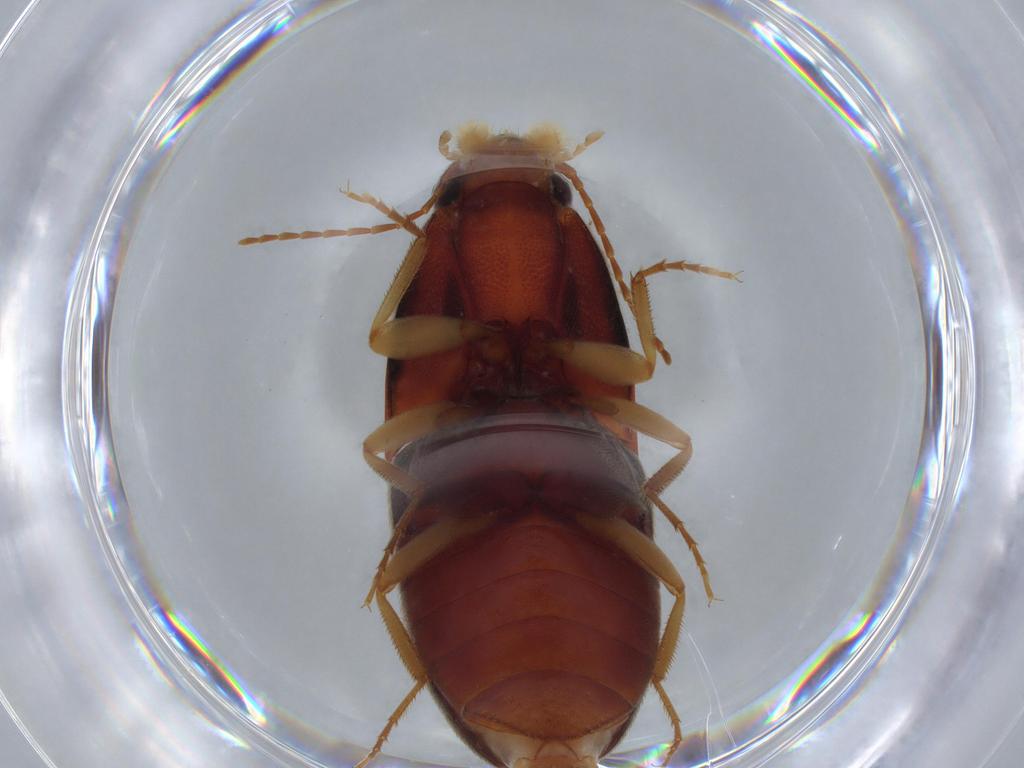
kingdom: Animalia
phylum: Arthropoda
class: Insecta
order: Coleoptera
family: Elateridae
